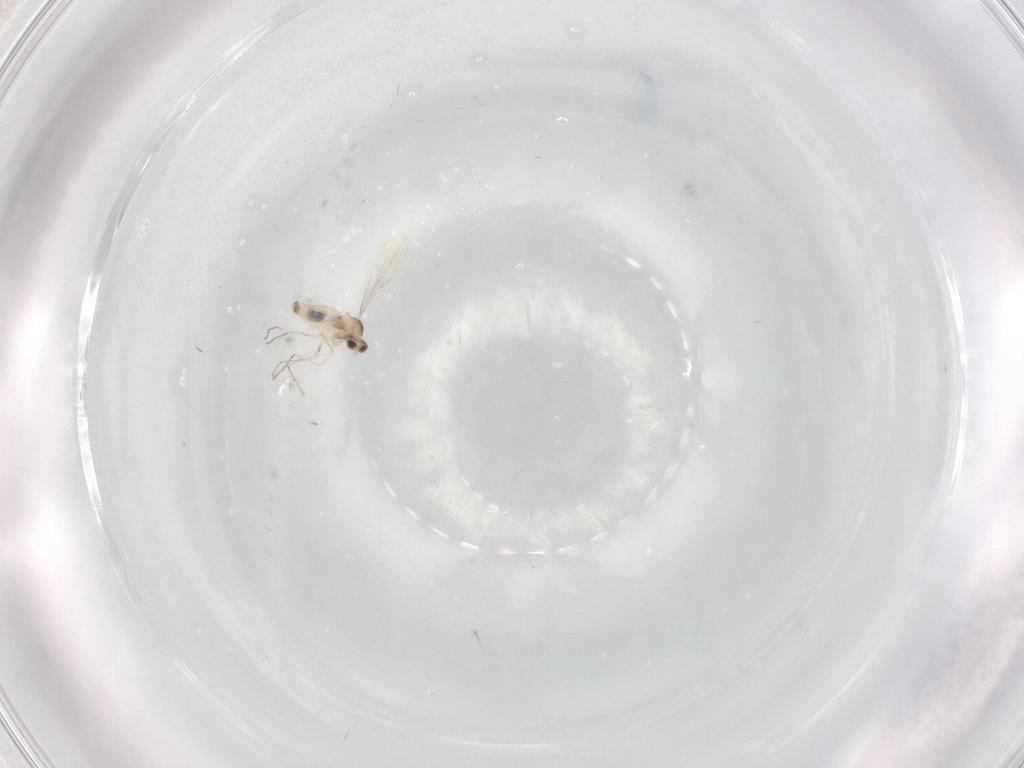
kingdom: Animalia
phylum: Arthropoda
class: Insecta
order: Diptera
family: Cecidomyiidae
